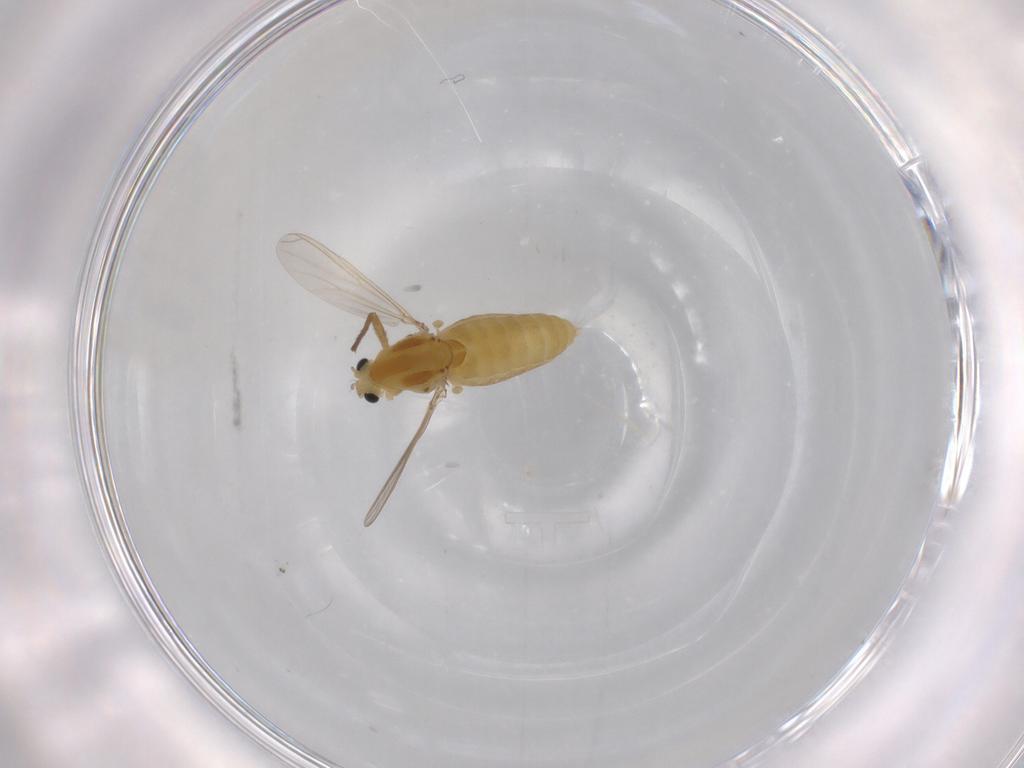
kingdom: Animalia
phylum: Arthropoda
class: Insecta
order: Diptera
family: Chironomidae
